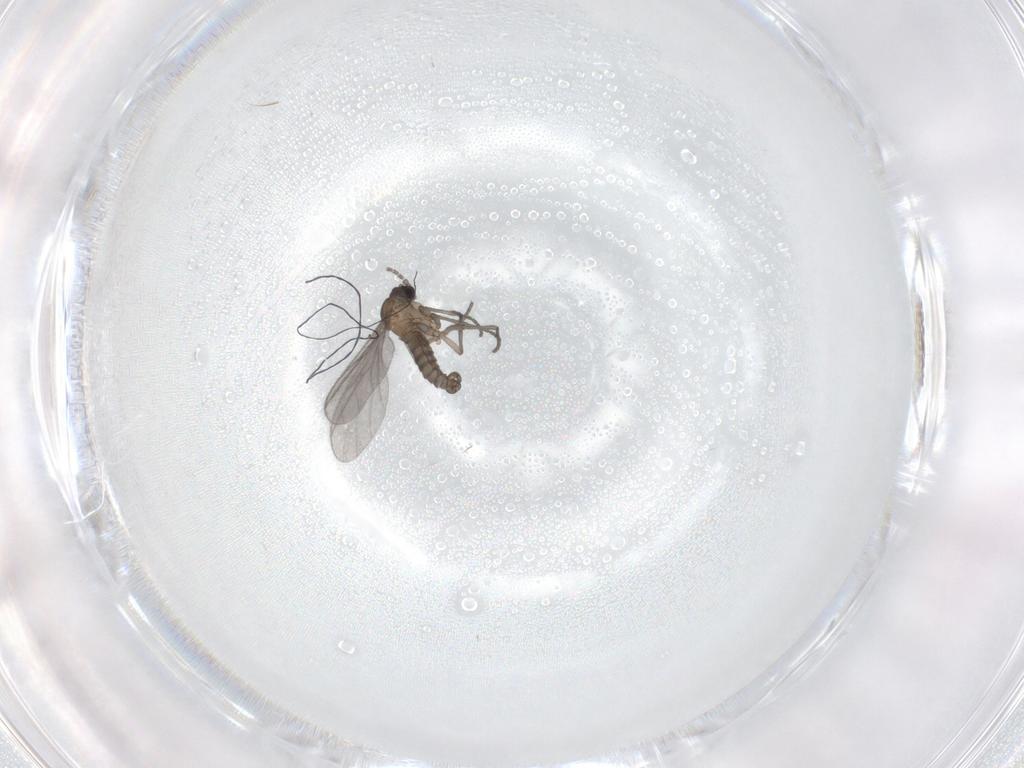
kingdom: Animalia
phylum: Arthropoda
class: Insecta
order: Diptera
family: Sciaridae
